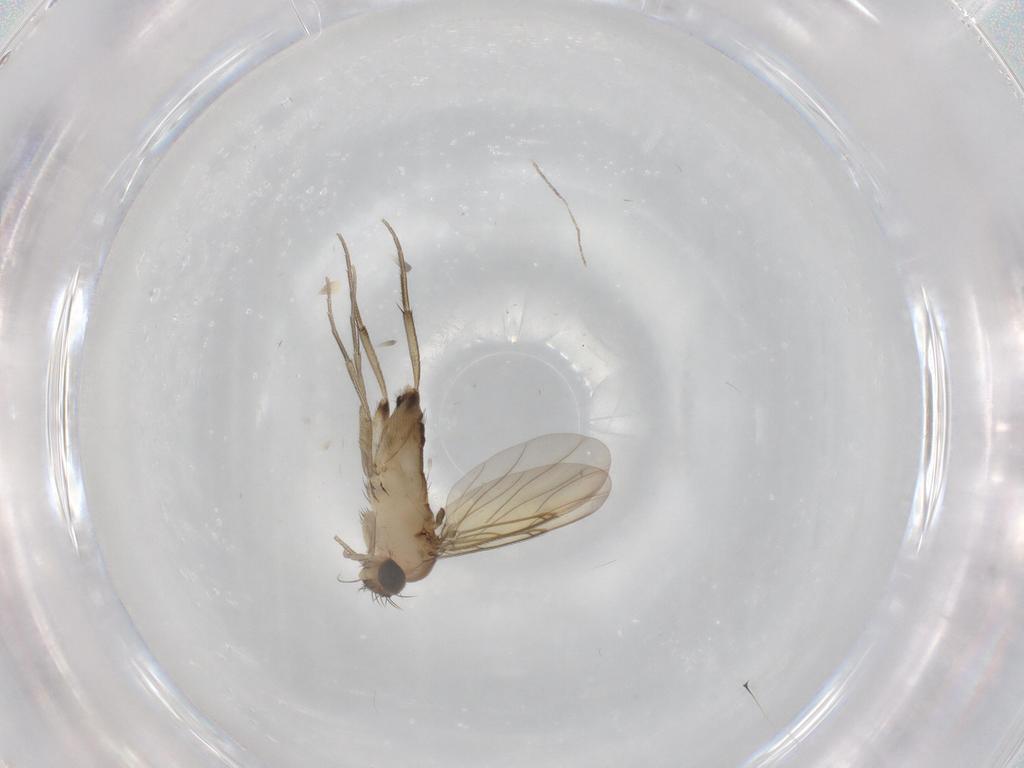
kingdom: Animalia
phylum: Arthropoda
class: Insecta
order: Diptera
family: Phoridae
